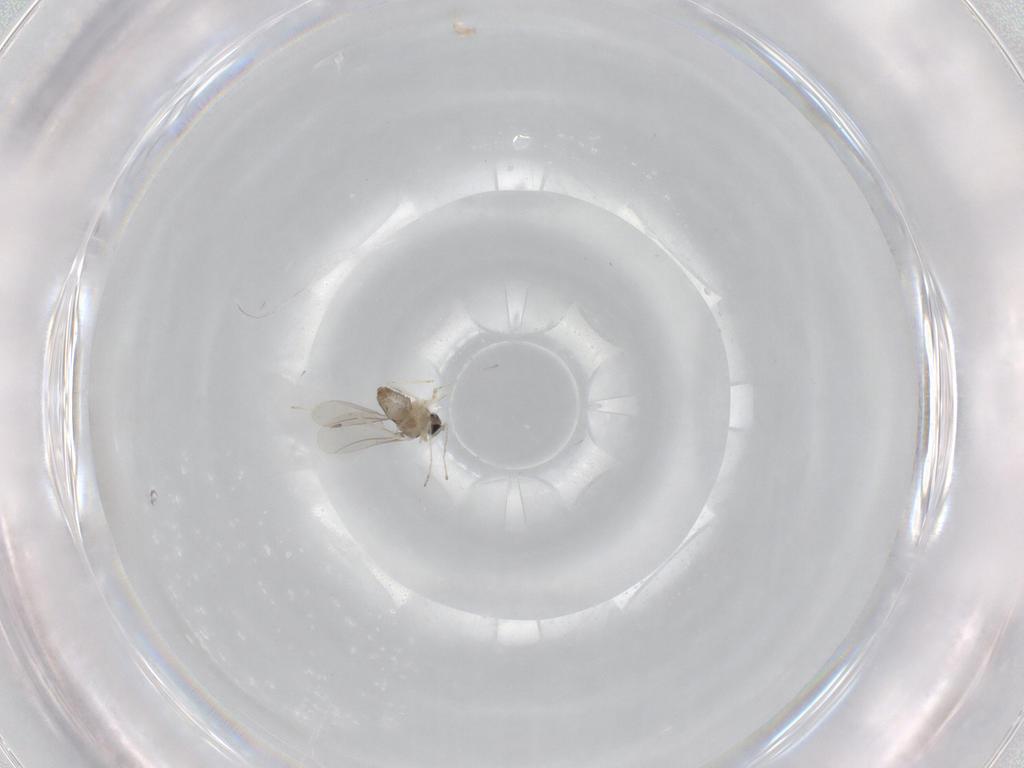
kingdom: Animalia
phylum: Arthropoda
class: Insecta
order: Diptera
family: Cecidomyiidae
